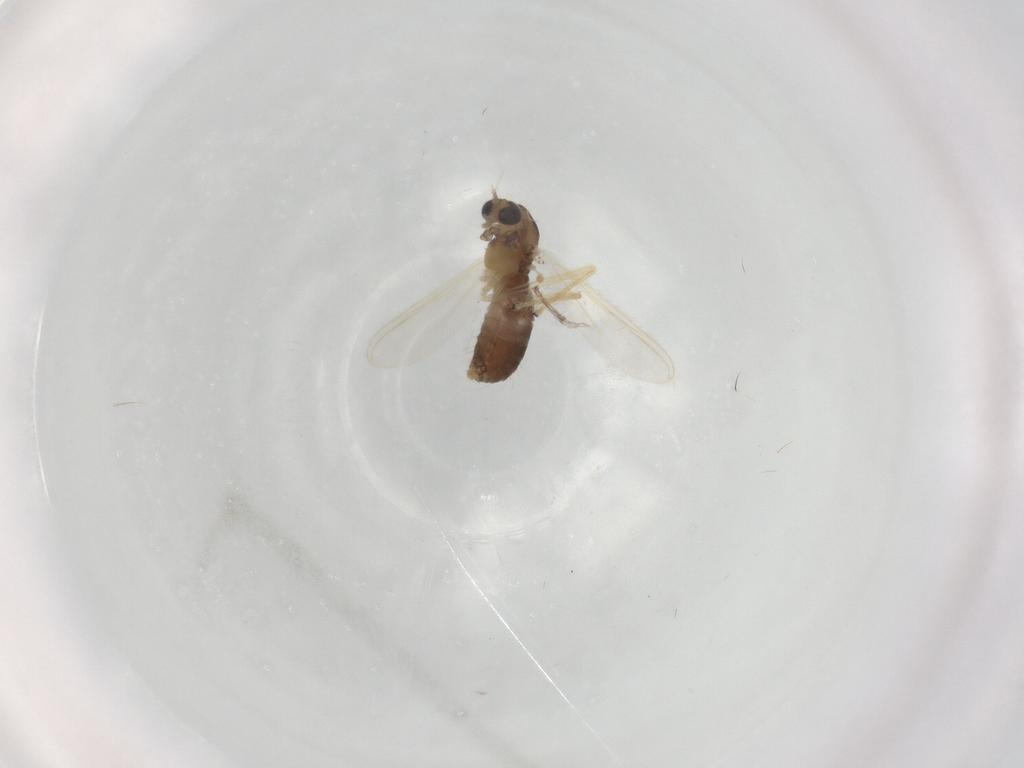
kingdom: Animalia
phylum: Arthropoda
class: Insecta
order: Diptera
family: Chironomidae
